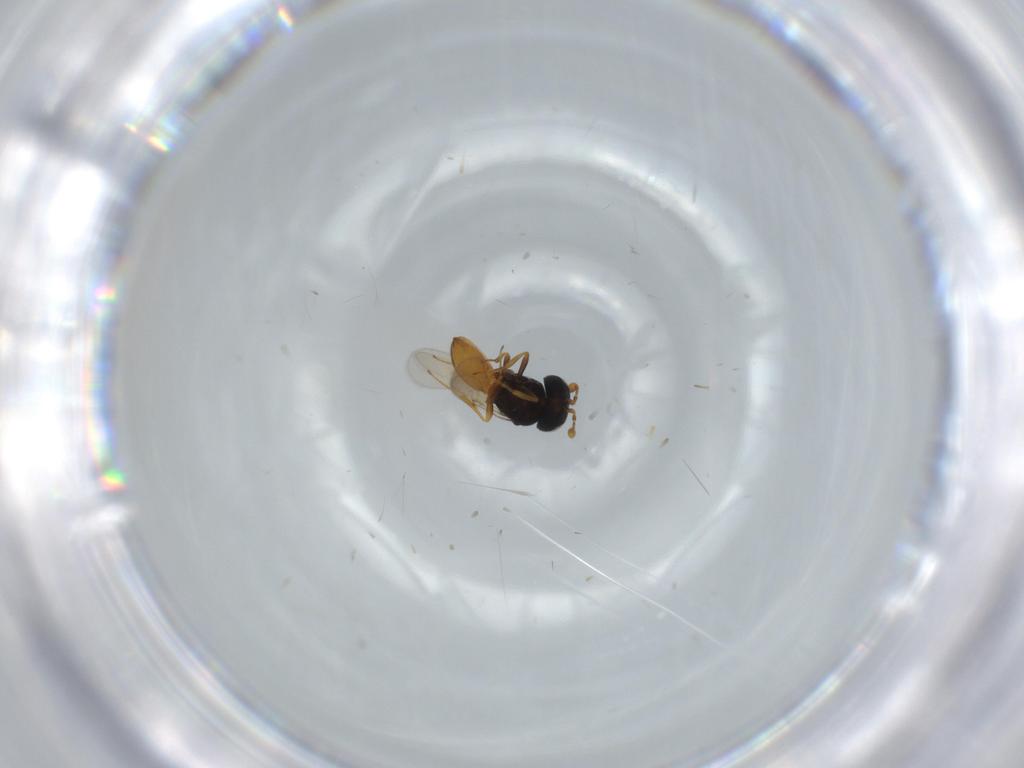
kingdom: Animalia
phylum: Arthropoda
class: Insecta
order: Hymenoptera
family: Scelionidae
